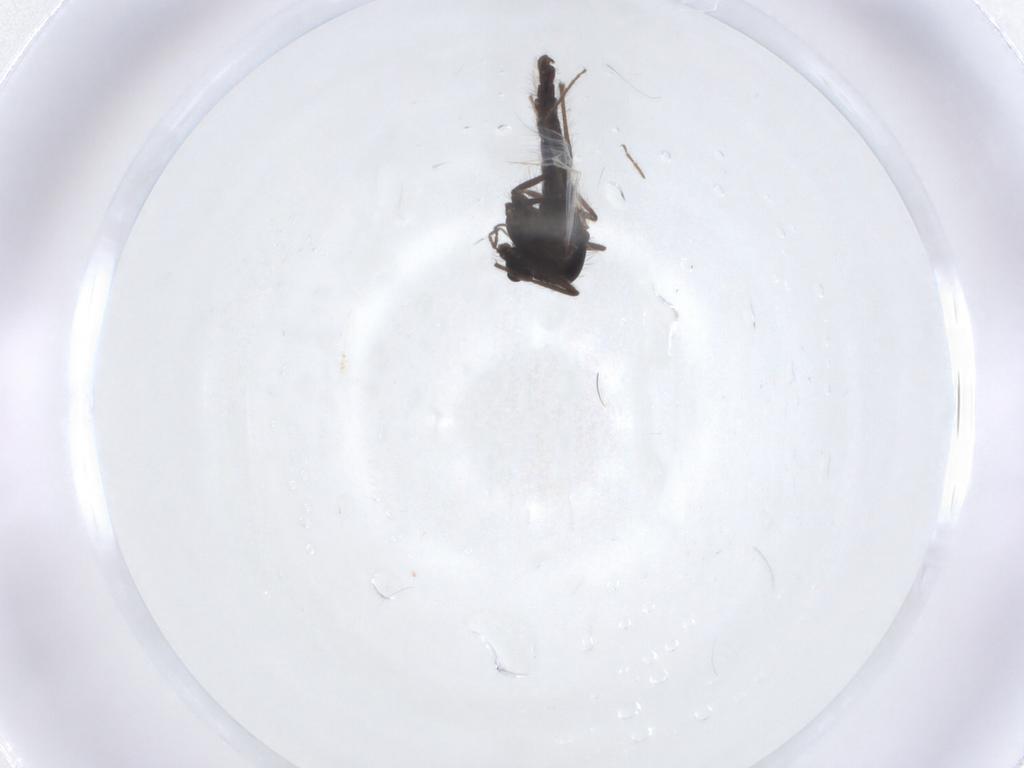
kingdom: Animalia
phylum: Arthropoda
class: Insecta
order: Diptera
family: Chironomidae
